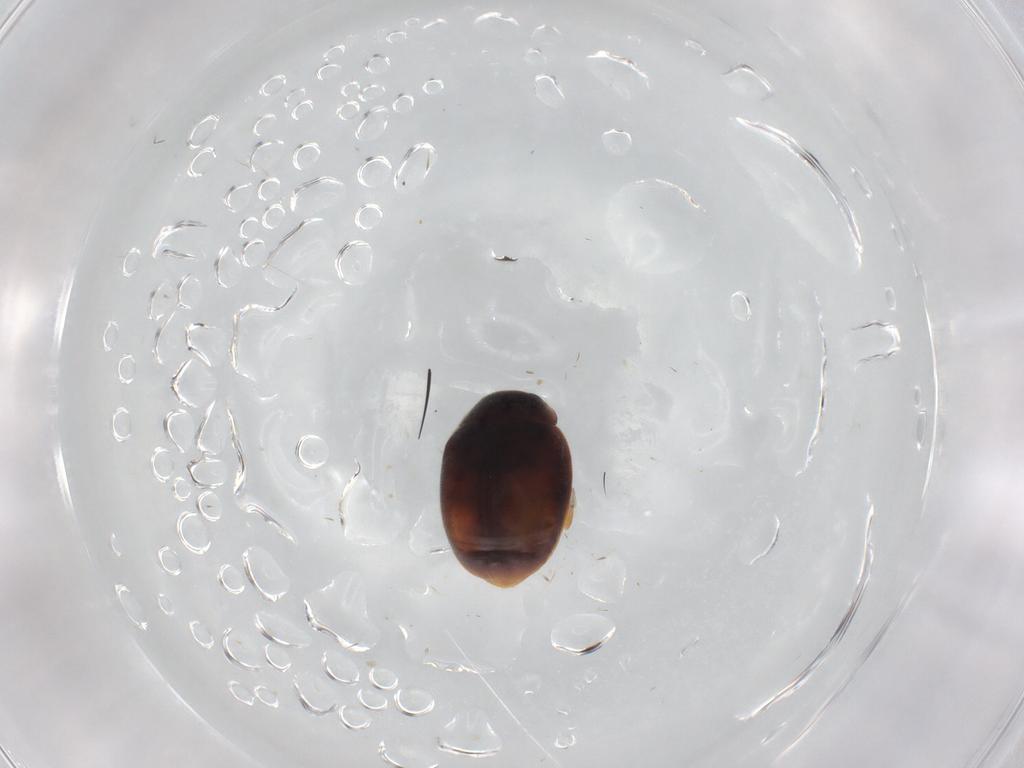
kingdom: Animalia
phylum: Arthropoda
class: Insecta
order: Coleoptera
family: Coccinellidae
